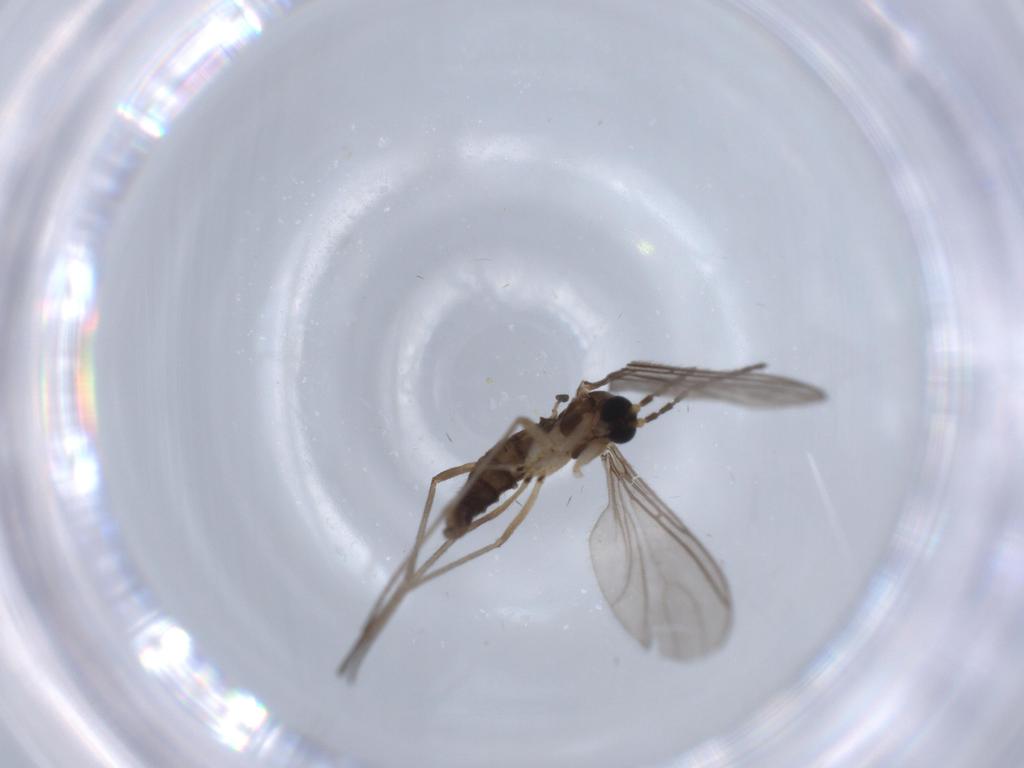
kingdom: Animalia
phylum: Arthropoda
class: Insecta
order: Diptera
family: Sciaridae
